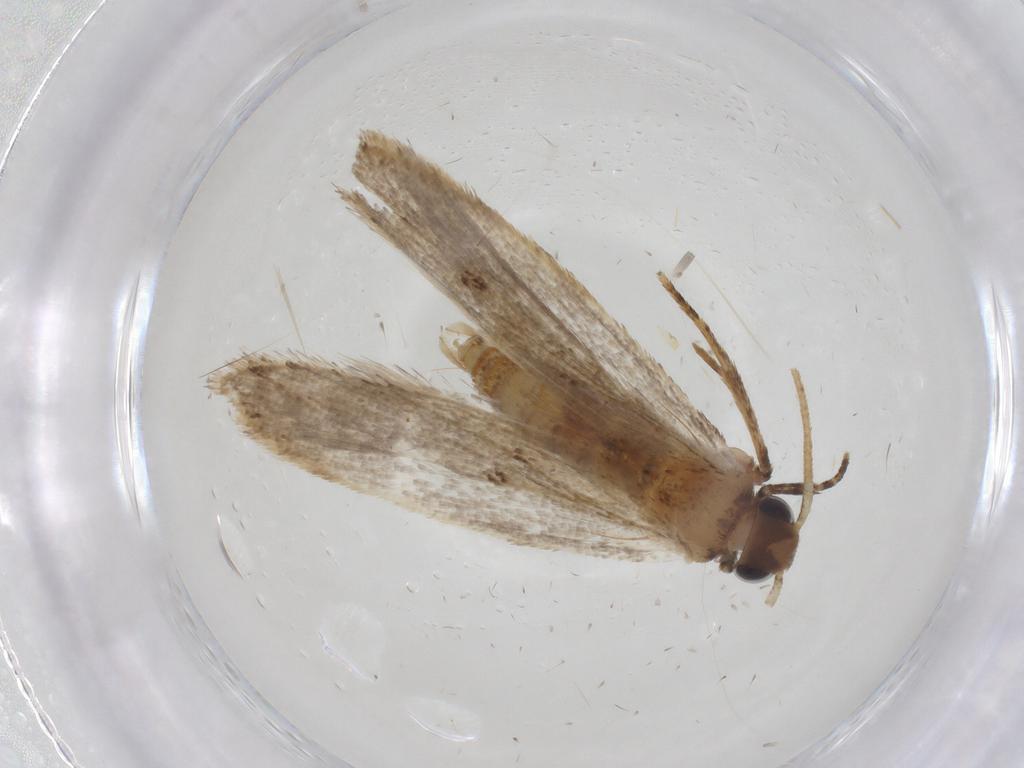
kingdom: Animalia
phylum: Arthropoda
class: Insecta
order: Lepidoptera
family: Oecophoridae
